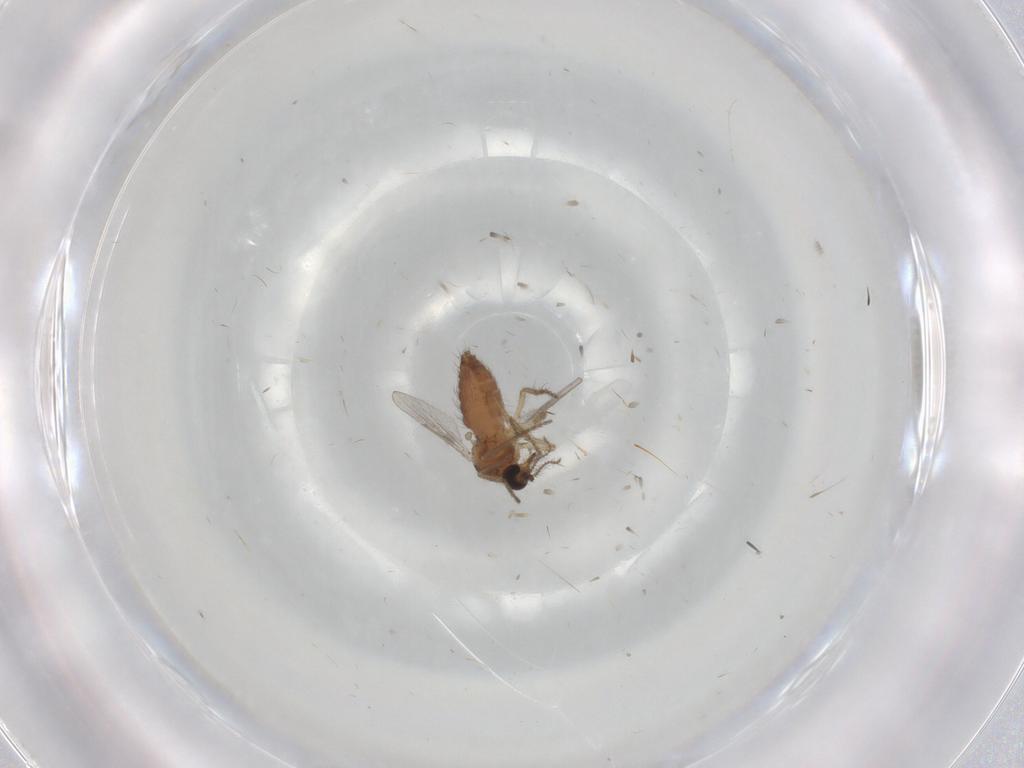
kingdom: Animalia
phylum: Arthropoda
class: Insecta
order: Diptera
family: Ceratopogonidae
